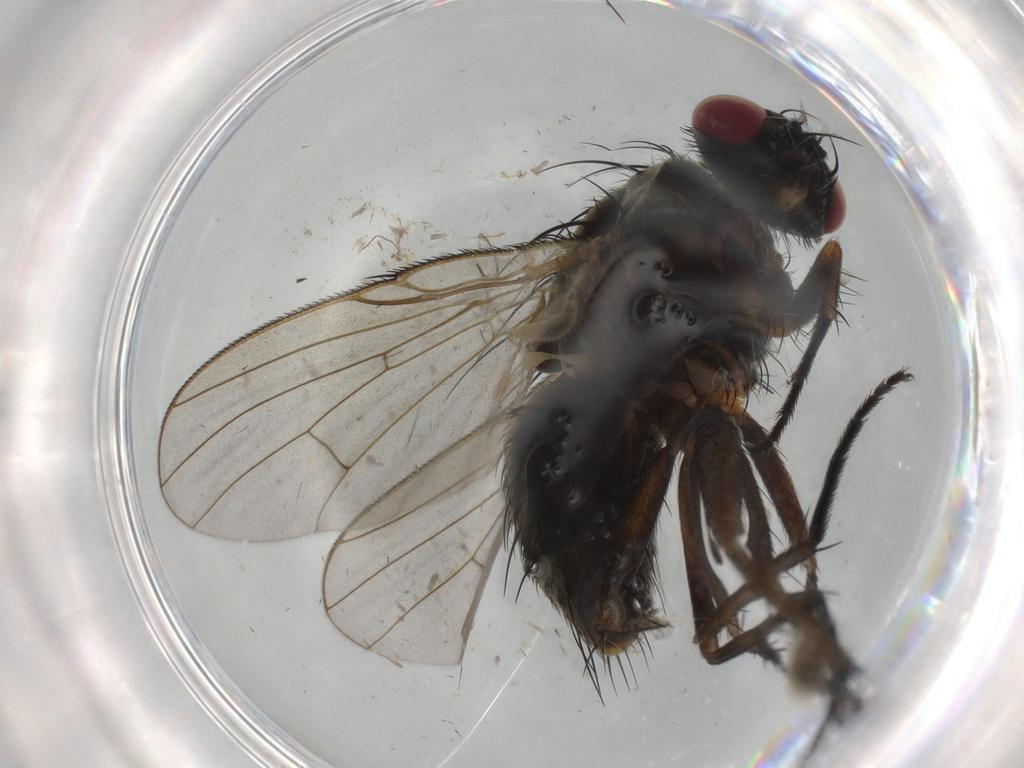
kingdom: Animalia
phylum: Arthropoda
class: Insecta
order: Diptera
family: Muscidae
